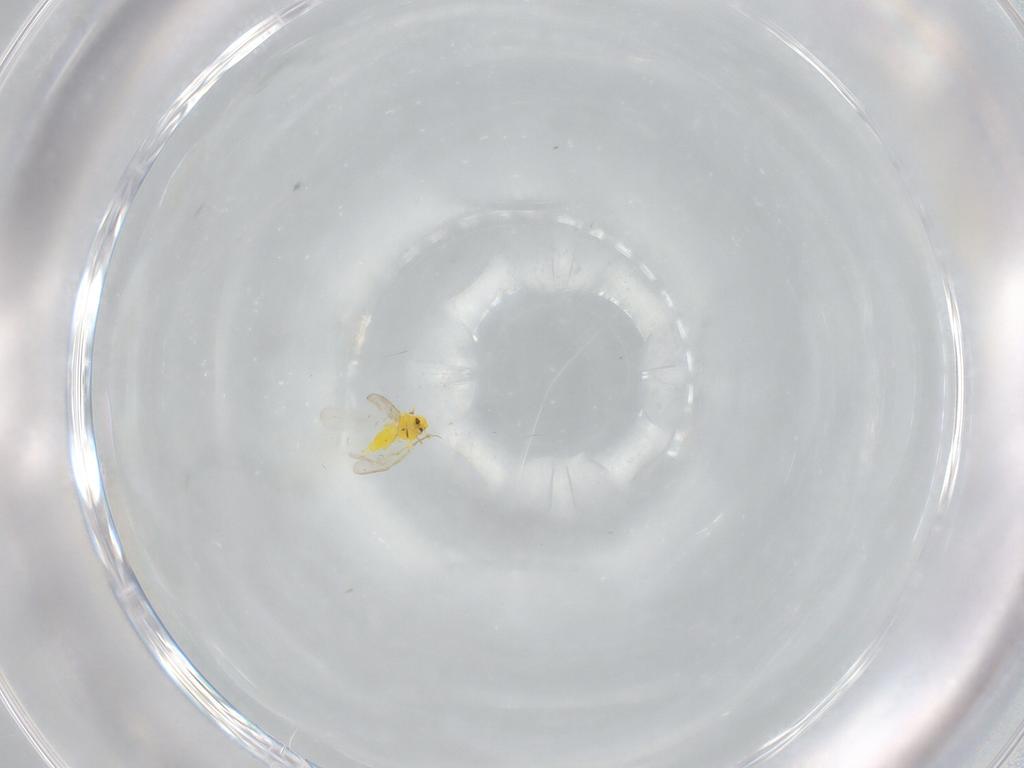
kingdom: Animalia
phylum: Arthropoda
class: Insecta
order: Hemiptera
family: Aleyrodidae
